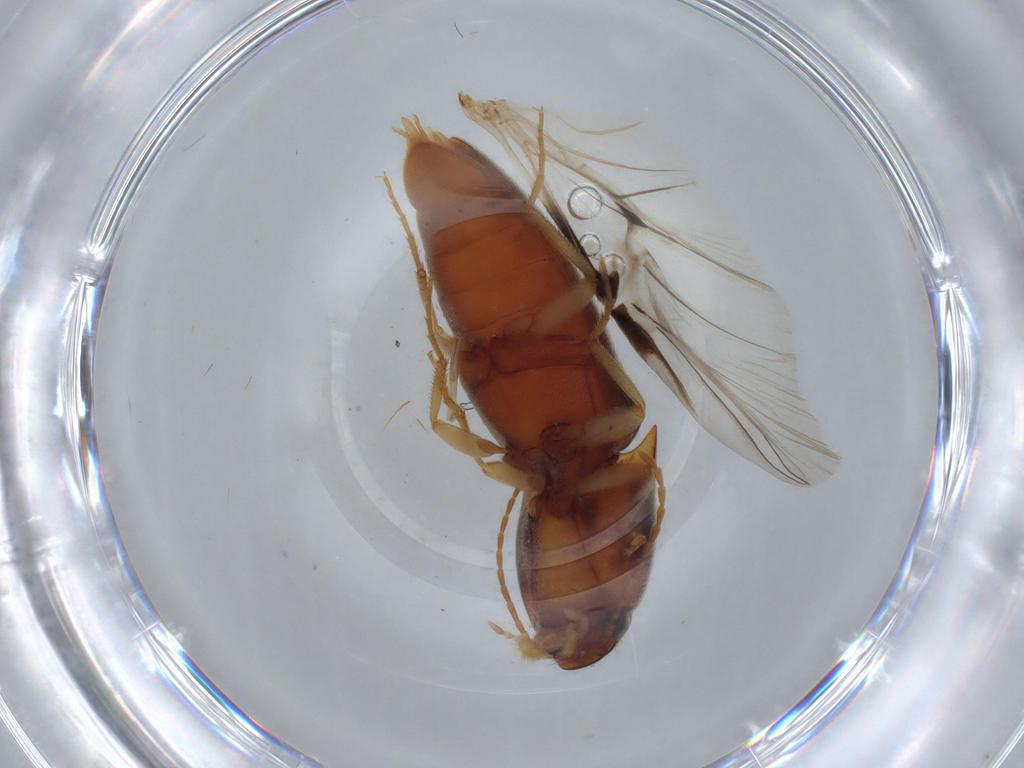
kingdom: Animalia
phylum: Arthropoda
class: Insecta
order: Coleoptera
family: Elateridae
